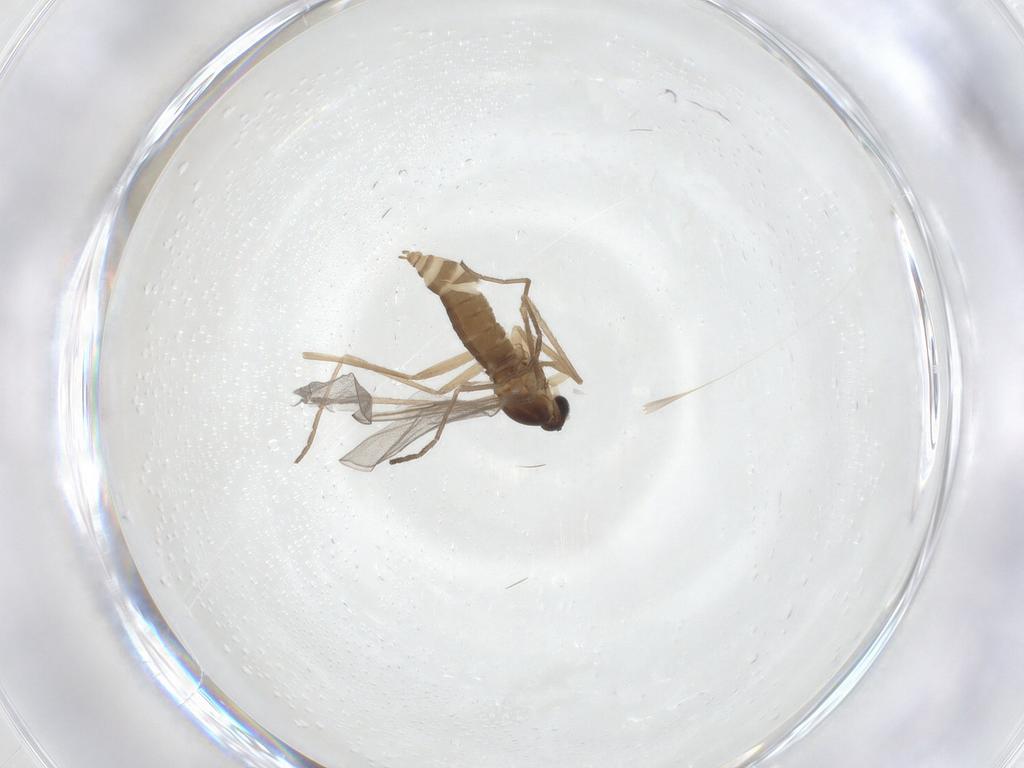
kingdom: Animalia
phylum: Arthropoda
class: Insecta
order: Diptera
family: Cecidomyiidae
